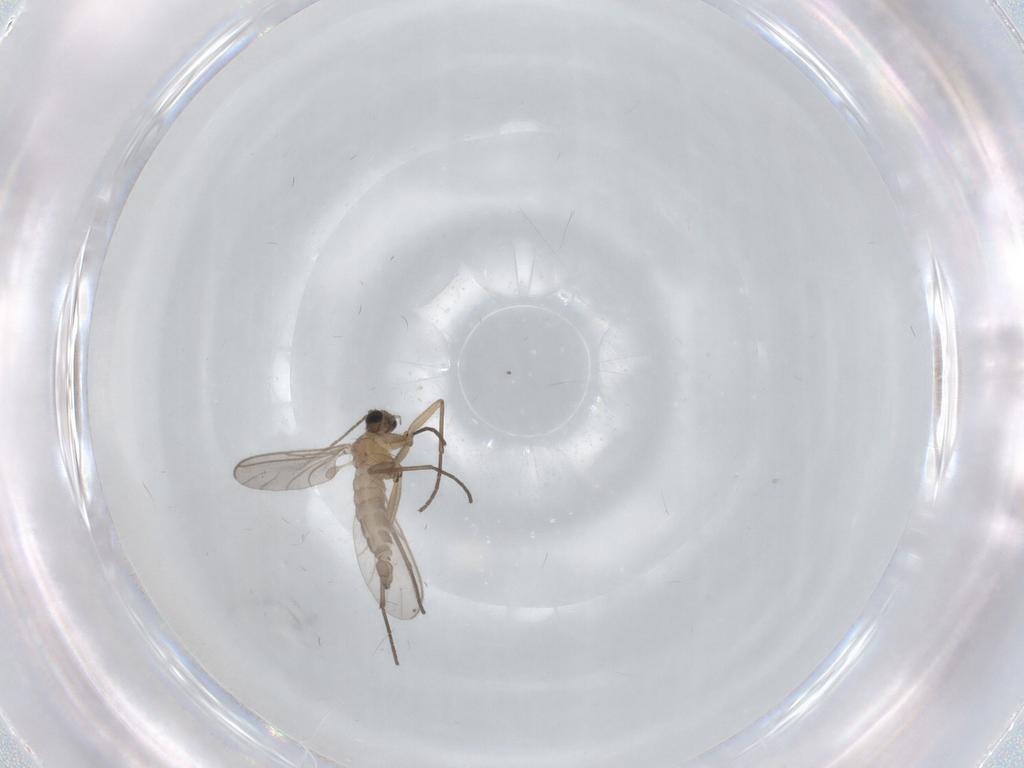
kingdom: Animalia
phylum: Arthropoda
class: Insecta
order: Diptera
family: Sciaridae
